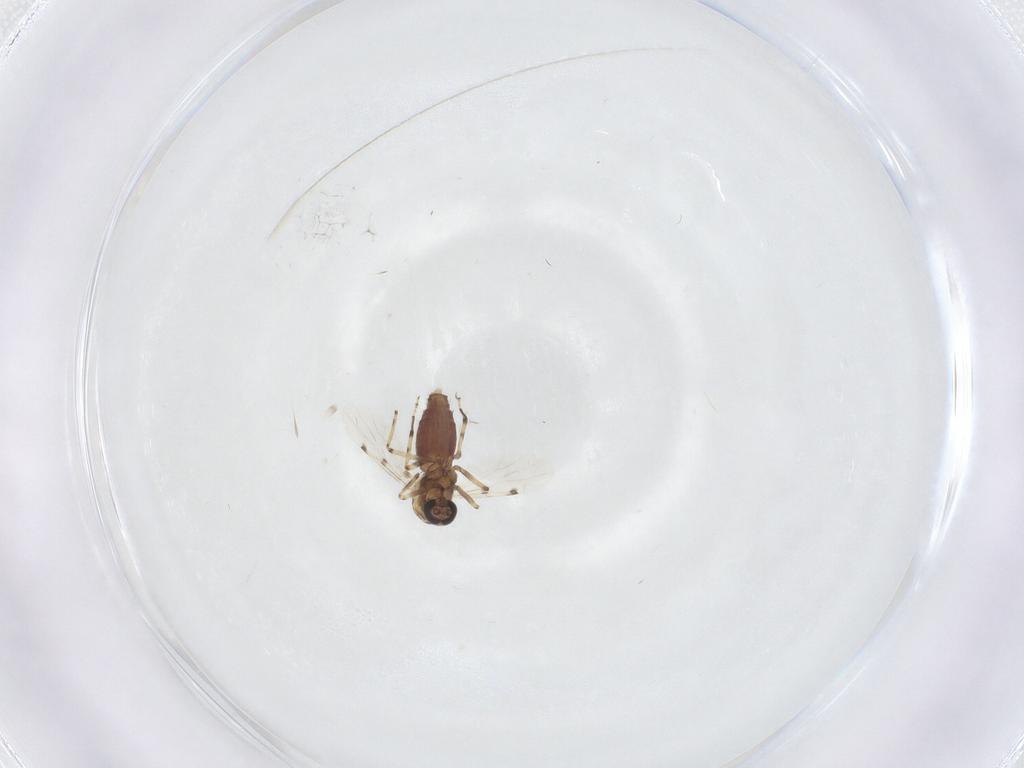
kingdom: Animalia
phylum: Arthropoda
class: Insecta
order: Diptera
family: Ceratopogonidae
